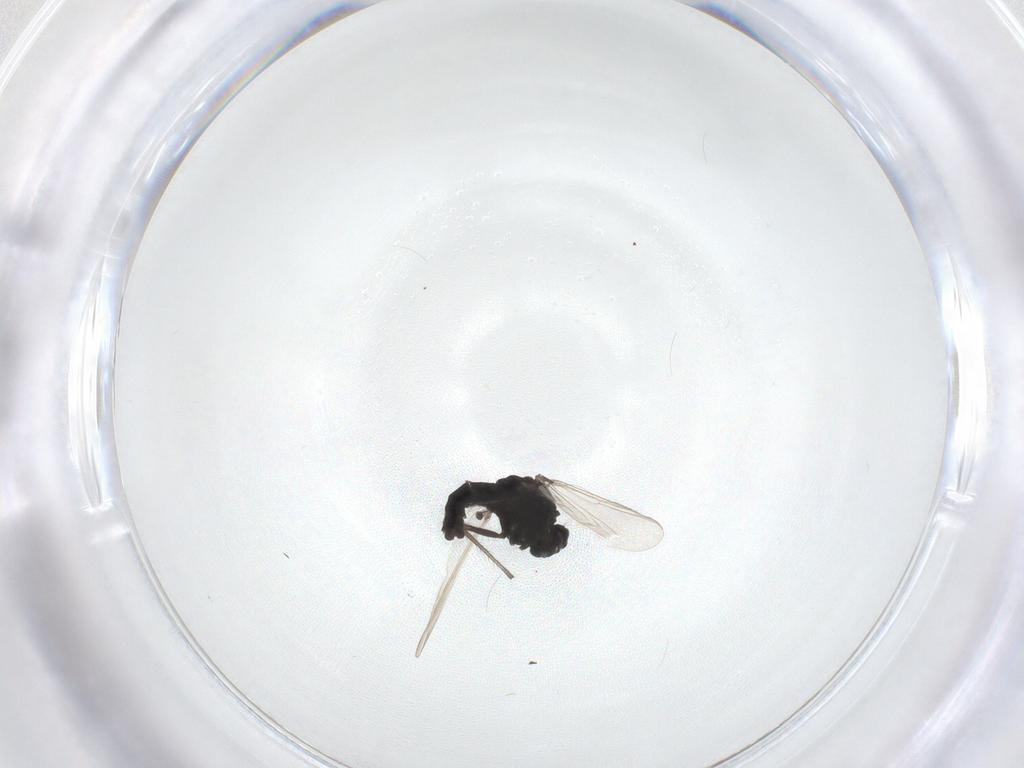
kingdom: Animalia
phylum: Arthropoda
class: Insecta
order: Diptera
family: Chironomidae
